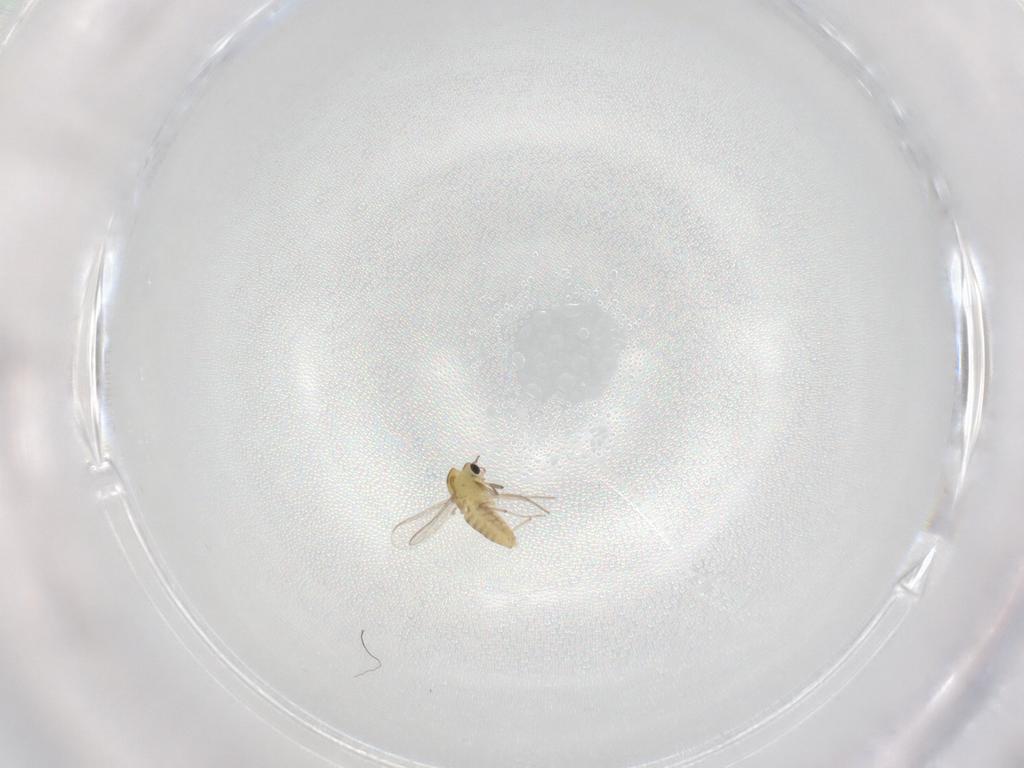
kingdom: Animalia
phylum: Arthropoda
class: Insecta
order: Diptera
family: Chironomidae
